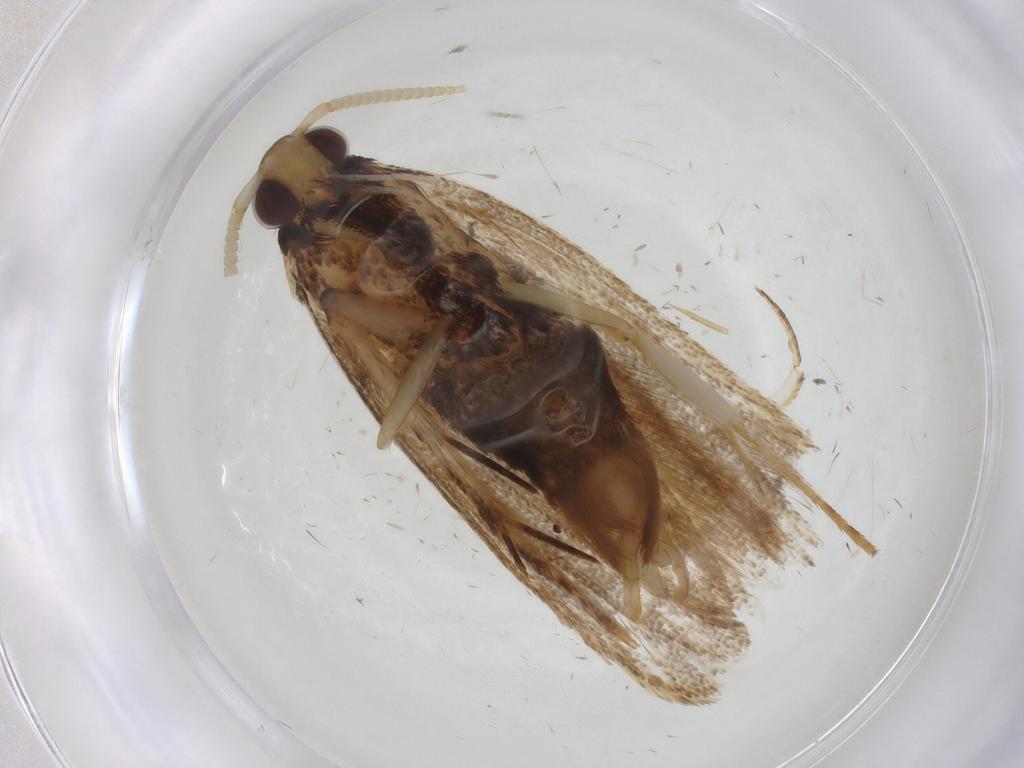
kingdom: Animalia
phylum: Arthropoda
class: Insecta
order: Lepidoptera
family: Lecithoceridae
